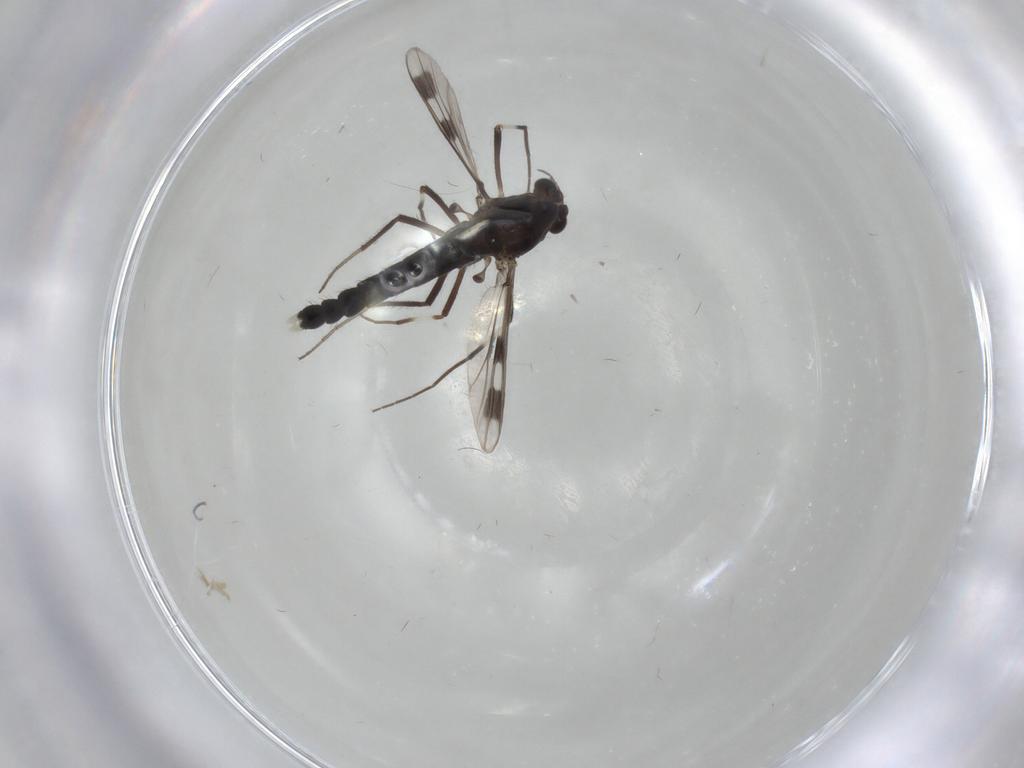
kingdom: Animalia
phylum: Arthropoda
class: Insecta
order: Diptera
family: Chironomidae
